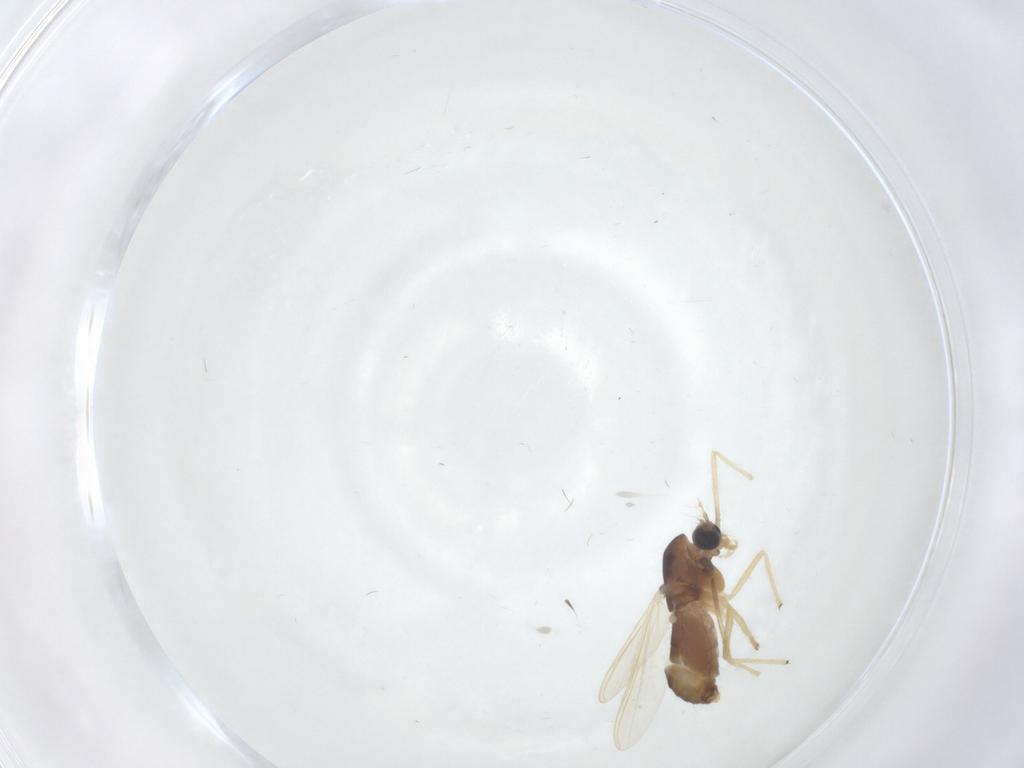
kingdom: Animalia
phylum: Arthropoda
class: Insecta
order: Diptera
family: Chironomidae
